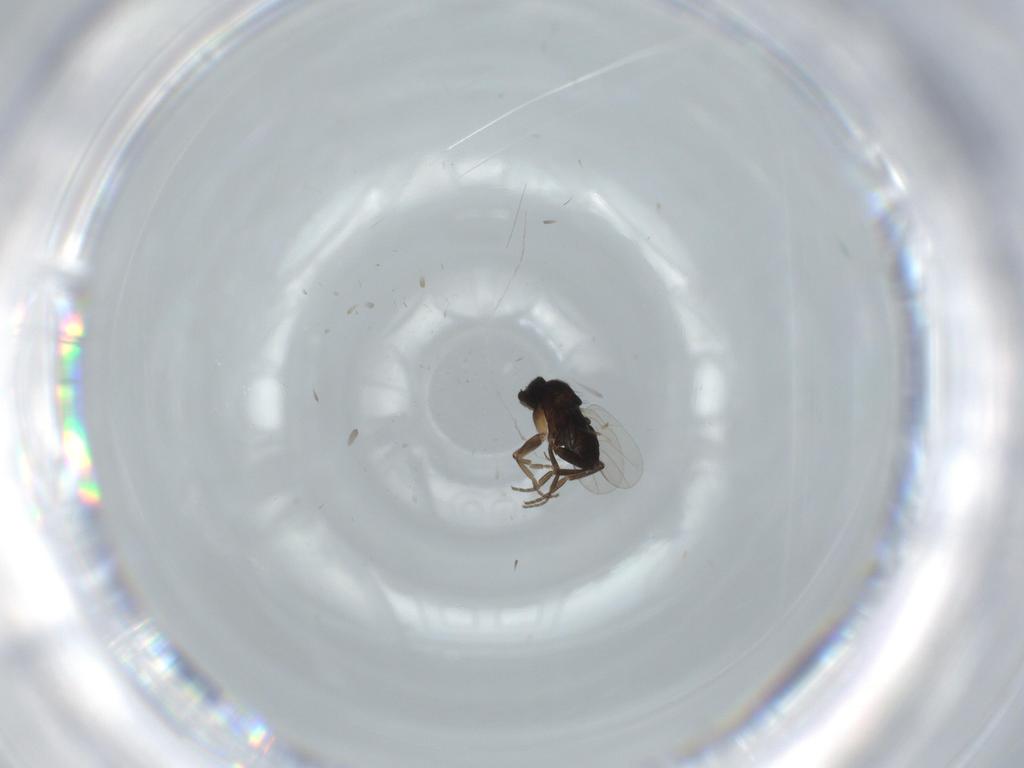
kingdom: Animalia
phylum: Arthropoda
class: Insecta
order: Diptera
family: Phoridae
